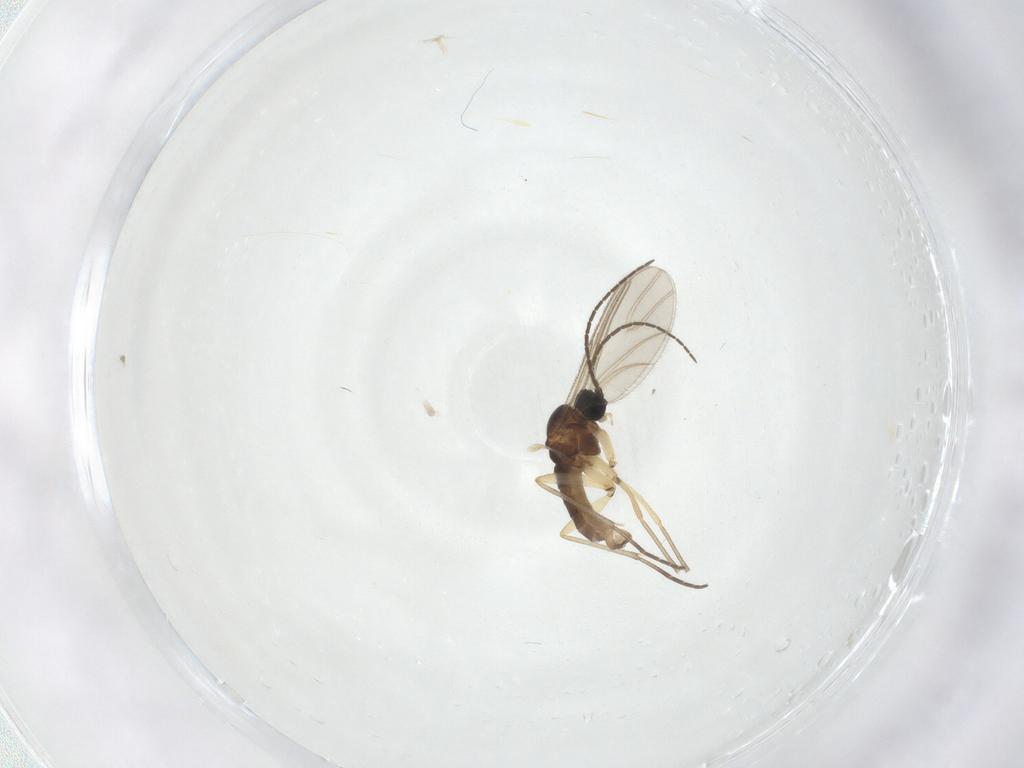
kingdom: Animalia
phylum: Arthropoda
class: Insecta
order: Diptera
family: Sciaridae
